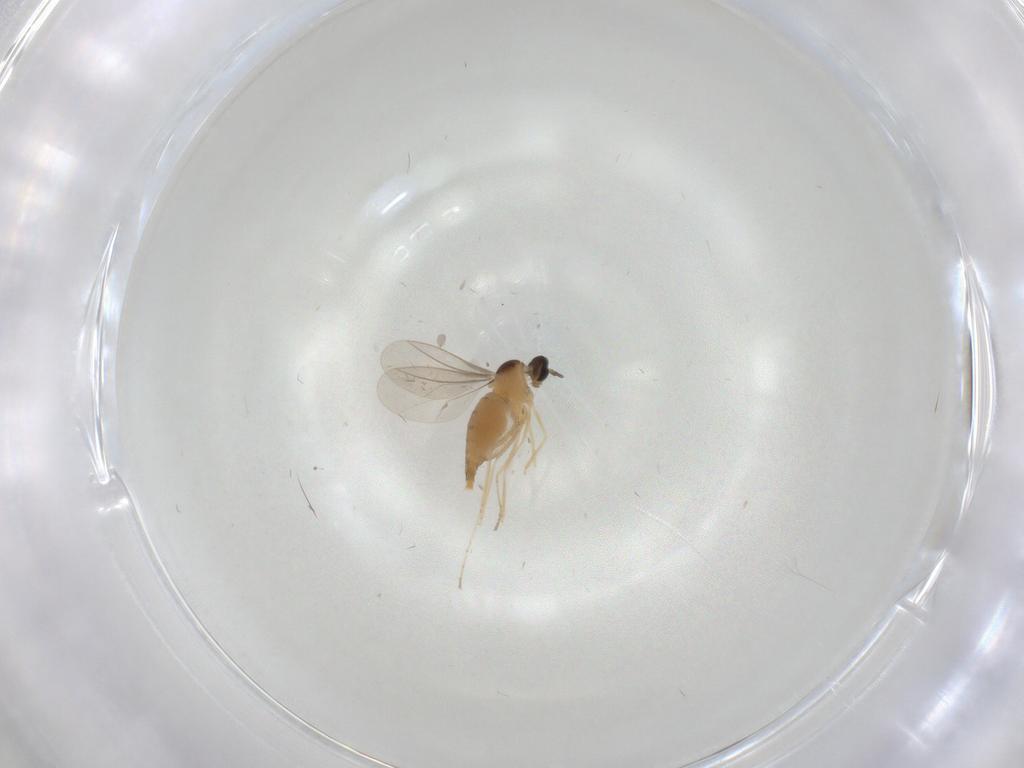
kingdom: Animalia
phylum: Arthropoda
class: Insecta
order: Diptera
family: Cecidomyiidae
